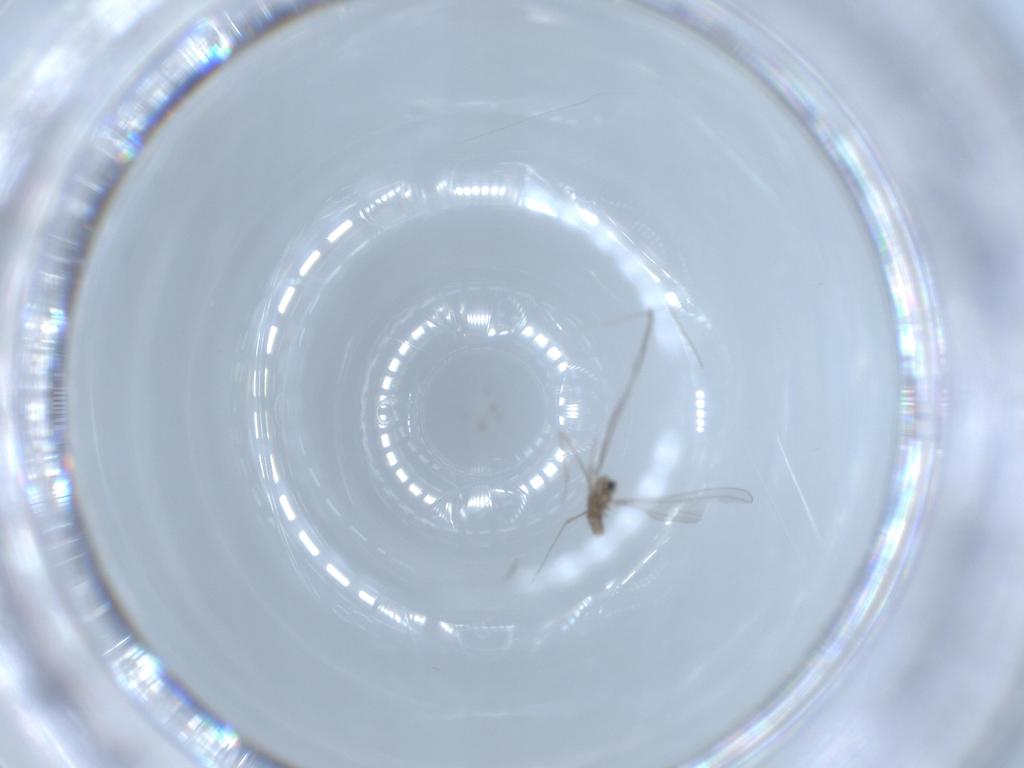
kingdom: Animalia
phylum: Arthropoda
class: Insecta
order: Diptera
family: Cecidomyiidae
